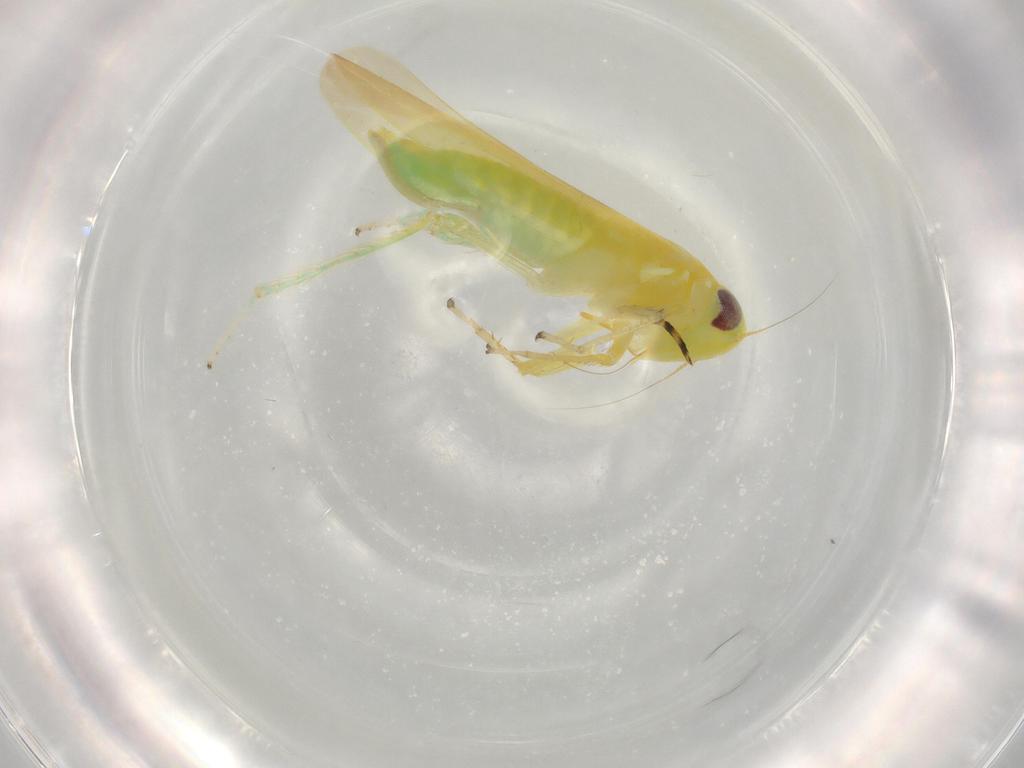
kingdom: Animalia
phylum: Arthropoda
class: Insecta
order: Hemiptera
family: Cicadellidae
